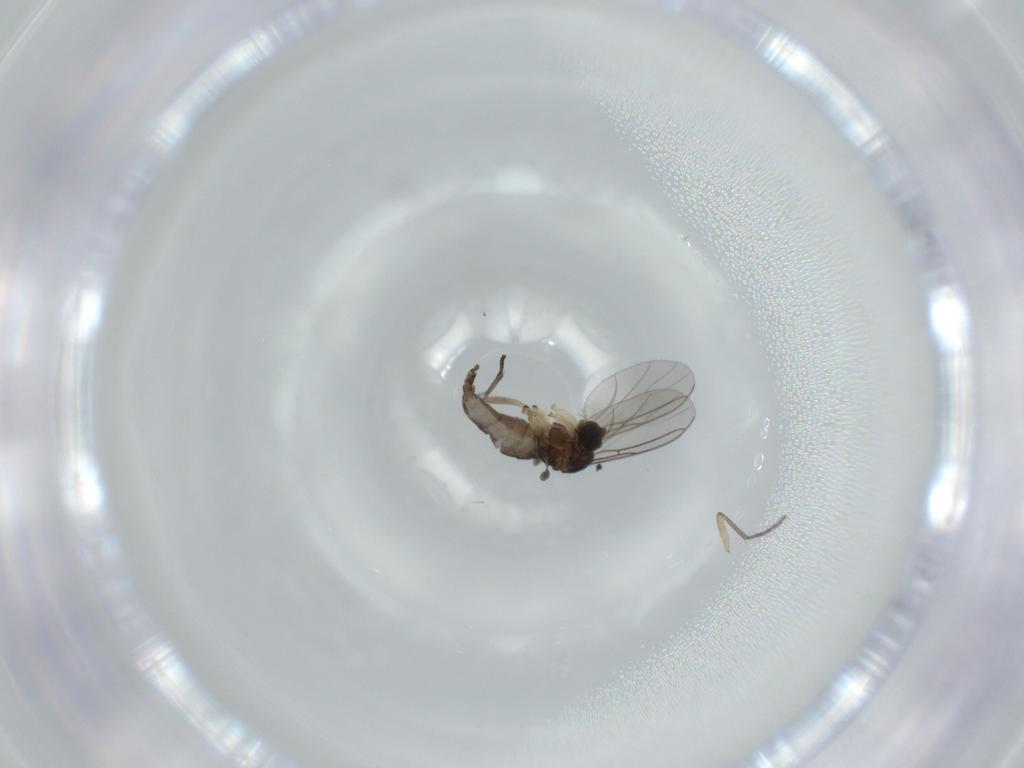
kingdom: Animalia
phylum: Arthropoda
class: Insecta
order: Diptera
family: Sciaridae
